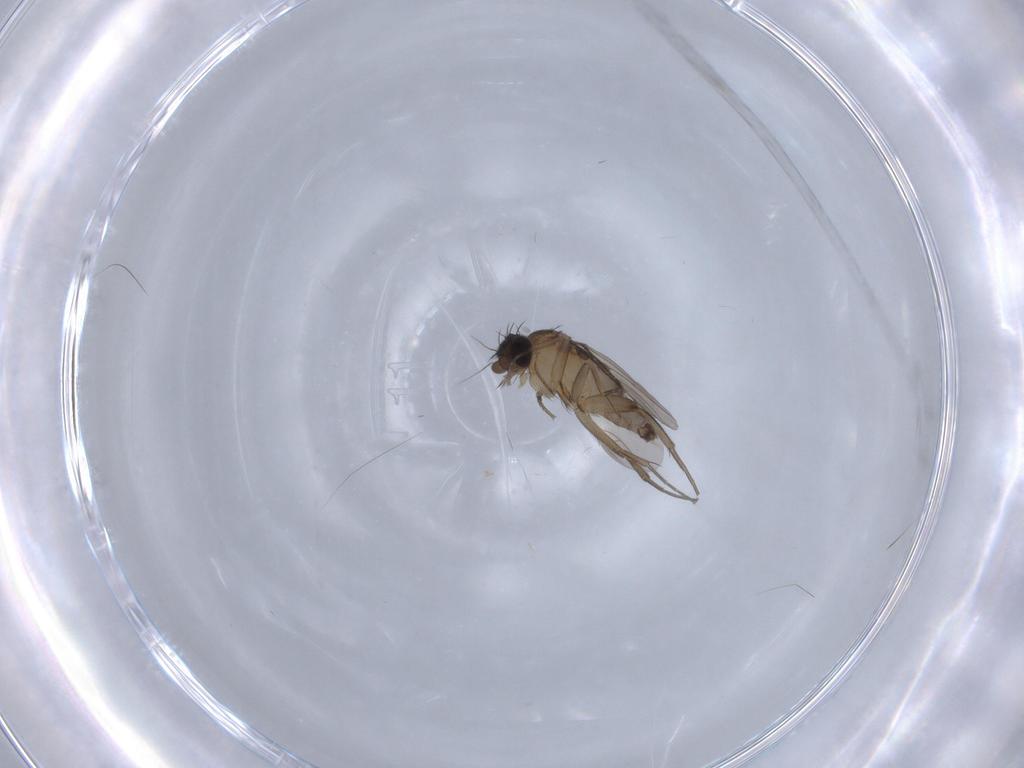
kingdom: Animalia
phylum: Arthropoda
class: Insecta
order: Diptera
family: Phoridae
